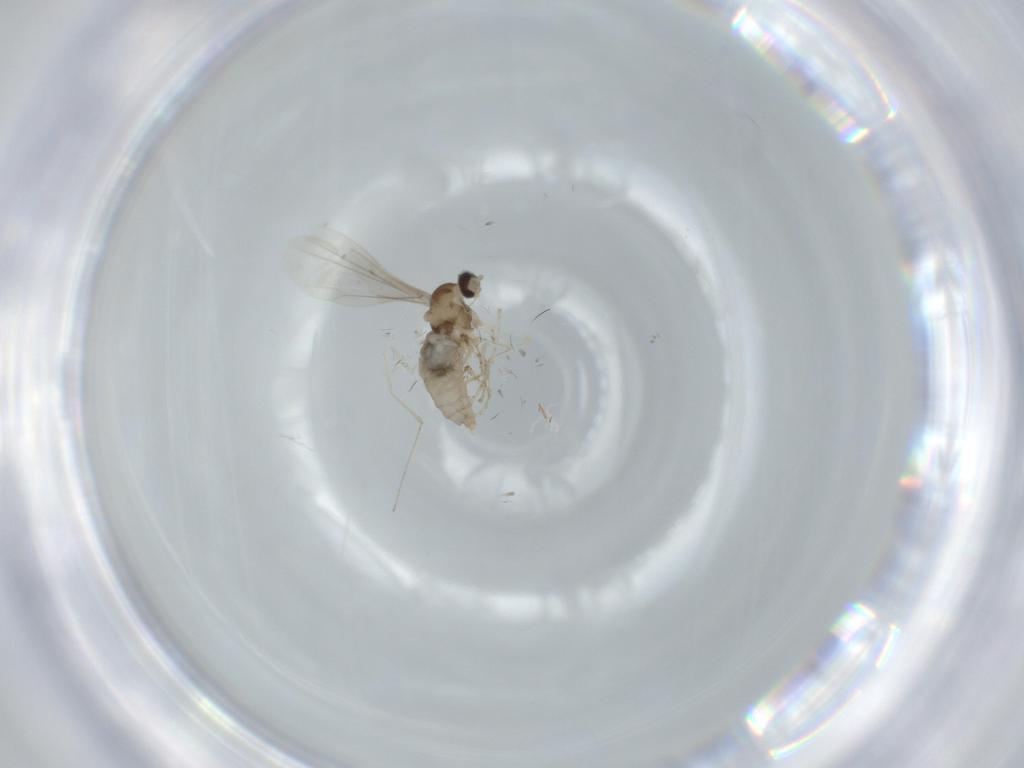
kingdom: Animalia
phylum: Arthropoda
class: Insecta
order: Diptera
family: Cecidomyiidae
